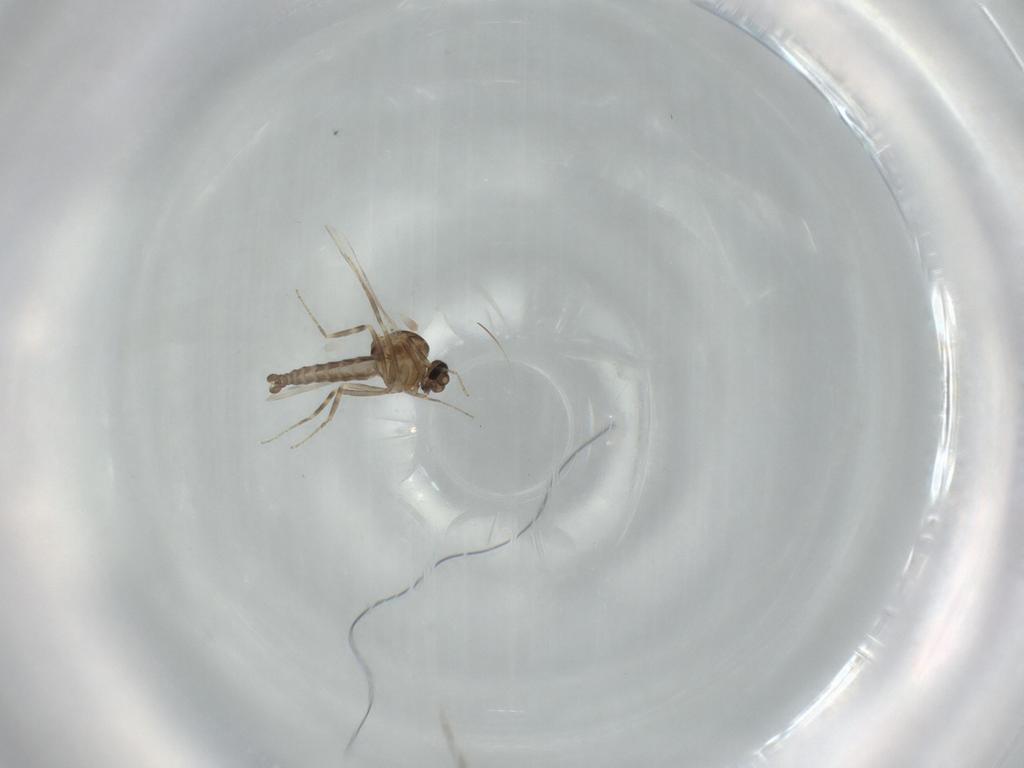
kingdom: Animalia
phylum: Arthropoda
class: Insecta
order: Diptera
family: Ceratopogonidae
